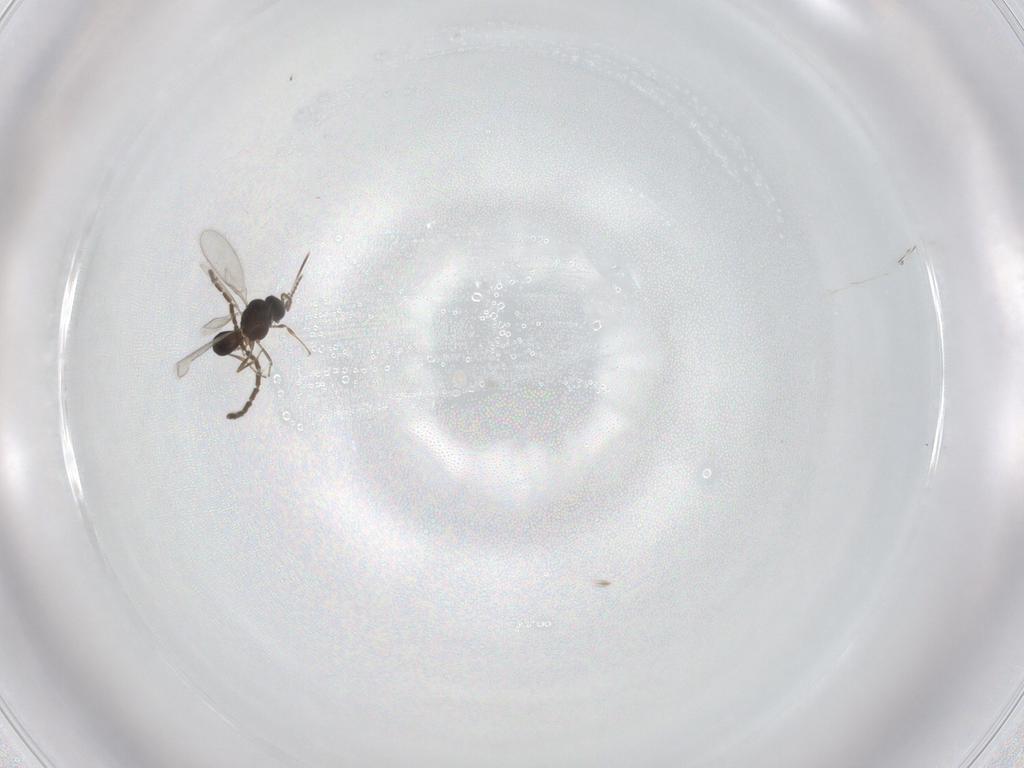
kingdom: Animalia
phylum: Arthropoda
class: Insecta
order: Hymenoptera
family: Scelionidae
